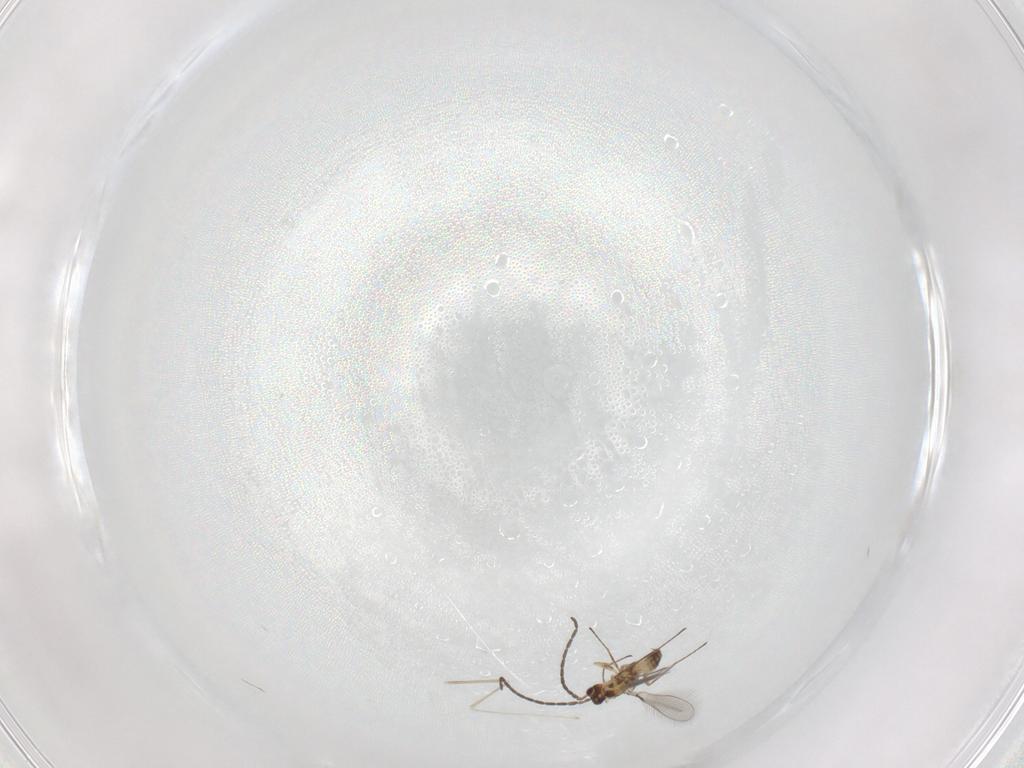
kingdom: Animalia
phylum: Arthropoda
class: Insecta
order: Hymenoptera
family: Mymaridae
